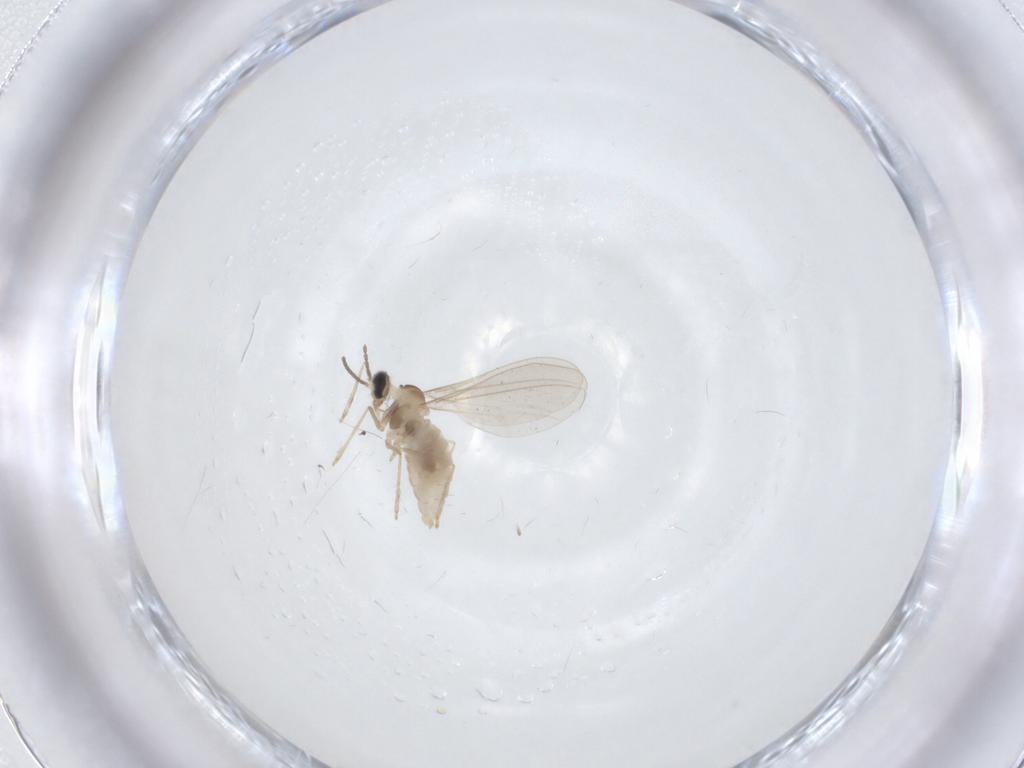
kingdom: Animalia
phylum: Arthropoda
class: Insecta
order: Diptera
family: Cecidomyiidae
